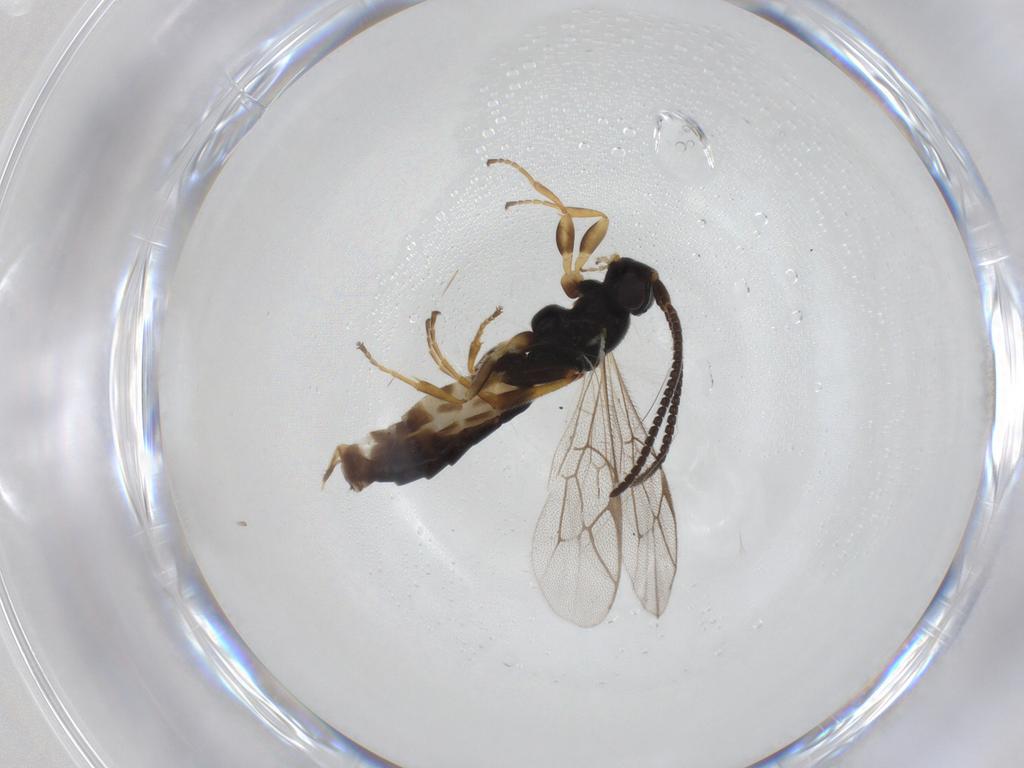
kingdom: Animalia
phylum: Arthropoda
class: Insecta
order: Hymenoptera
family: Ichneumonidae
